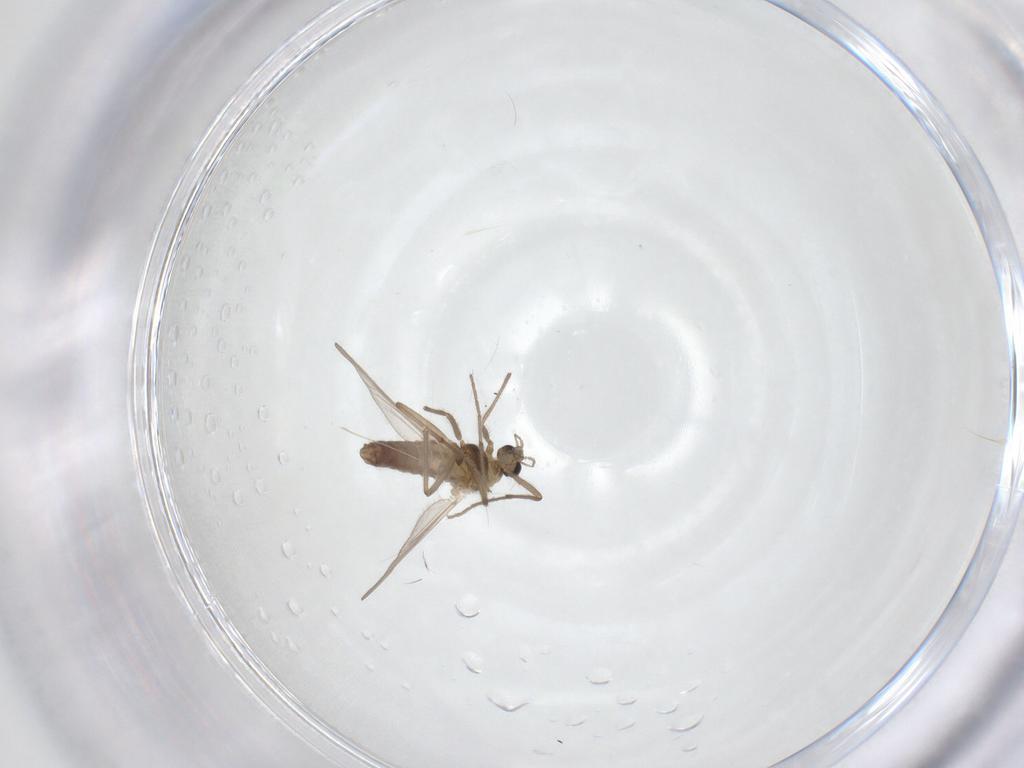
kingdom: Animalia
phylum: Arthropoda
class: Insecta
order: Diptera
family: Chironomidae
